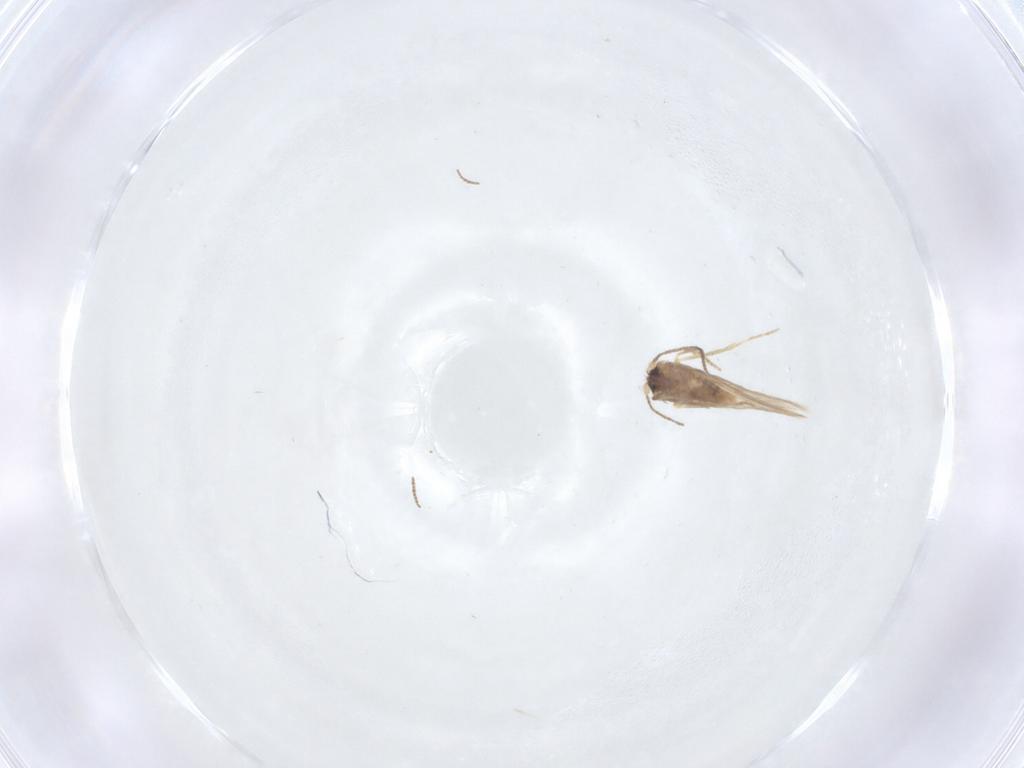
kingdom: Animalia
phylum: Arthropoda
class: Insecta
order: Lepidoptera
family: Nepticulidae
